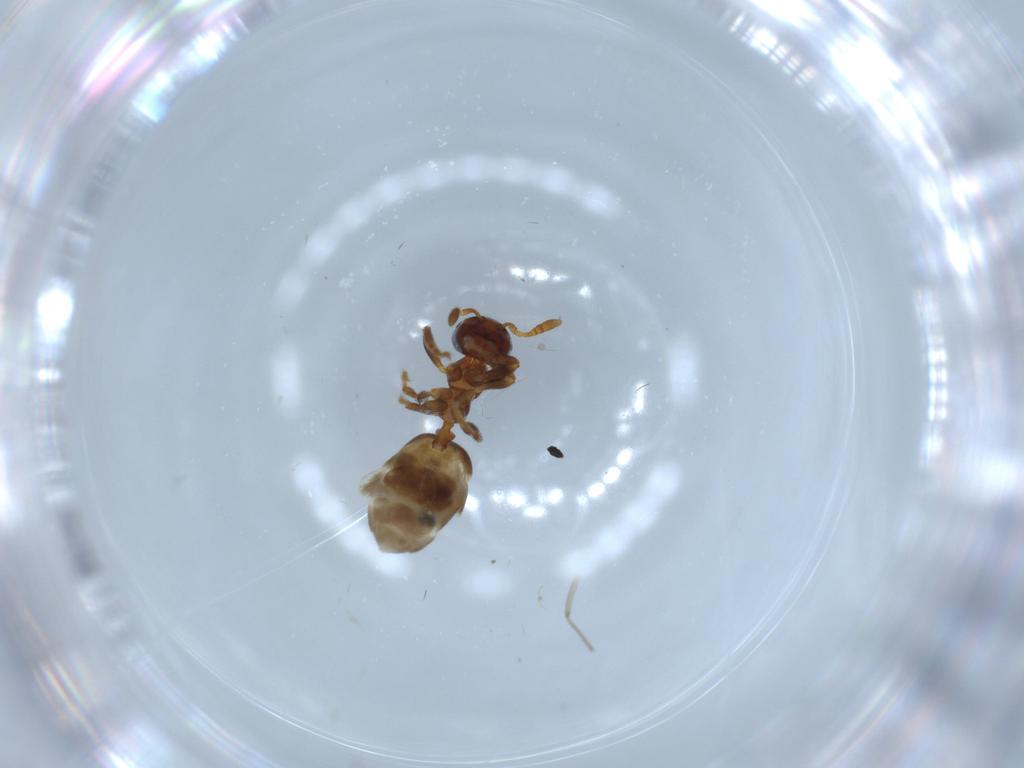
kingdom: Animalia
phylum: Arthropoda
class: Insecta
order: Hymenoptera
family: Formicidae
